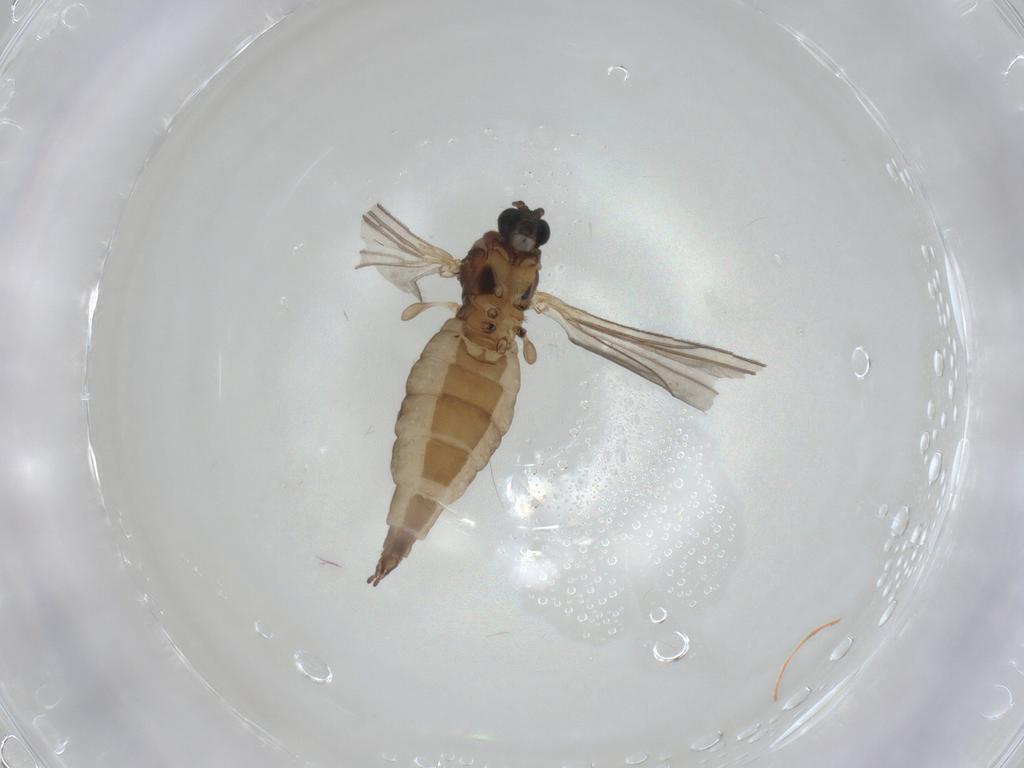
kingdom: Animalia
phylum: Arthropoda
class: Insecta
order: Diptera
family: Sciaridae
